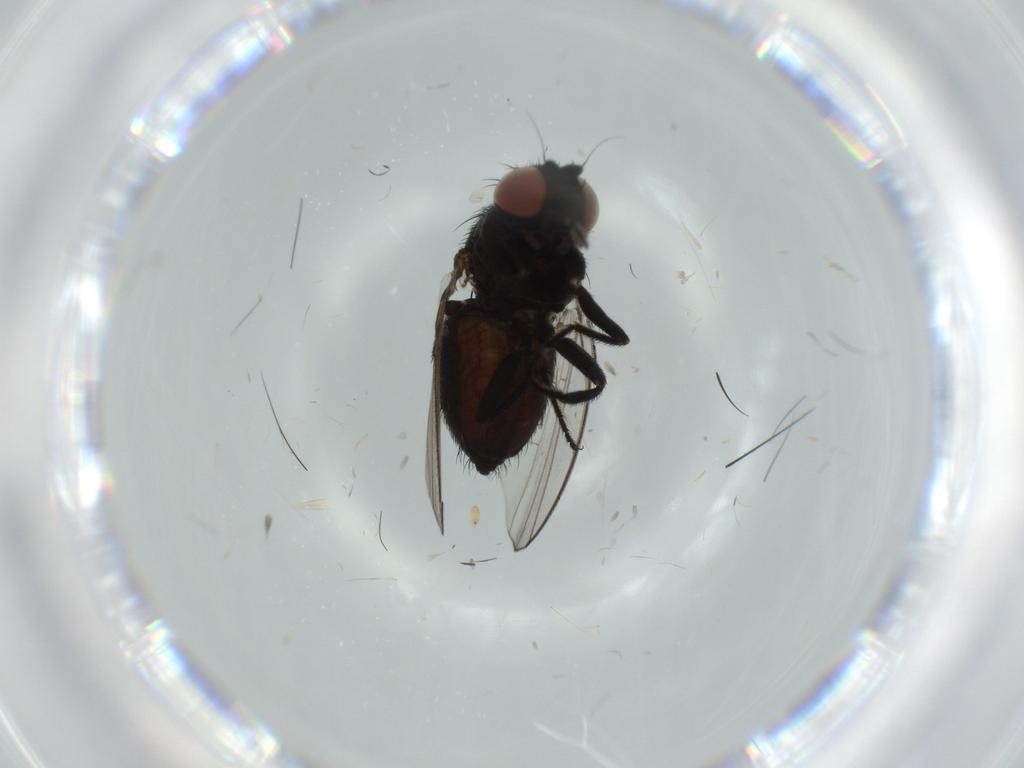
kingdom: Animalia
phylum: Arthropoda
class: Insecta
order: Diptera
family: Milichiidae
